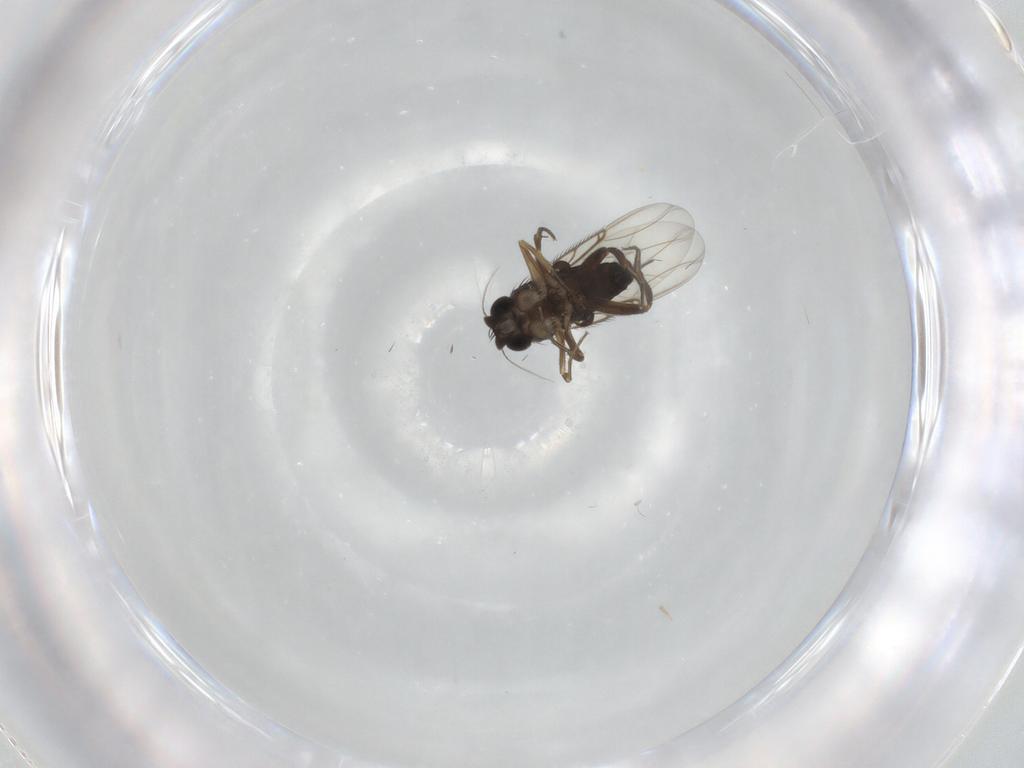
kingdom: Animalia
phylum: Arthropoda
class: Insecta
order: Diptera
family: Phoridae
